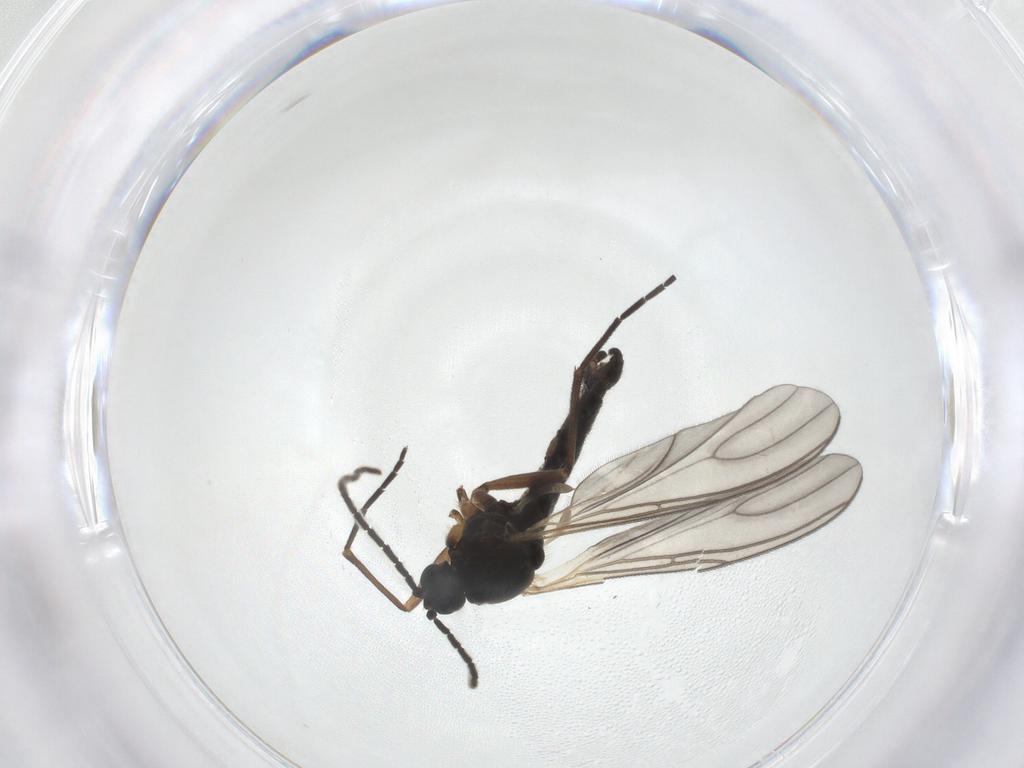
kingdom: Animalia
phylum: Arthropoda
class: Insecta
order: Diptera
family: Sciaridae
